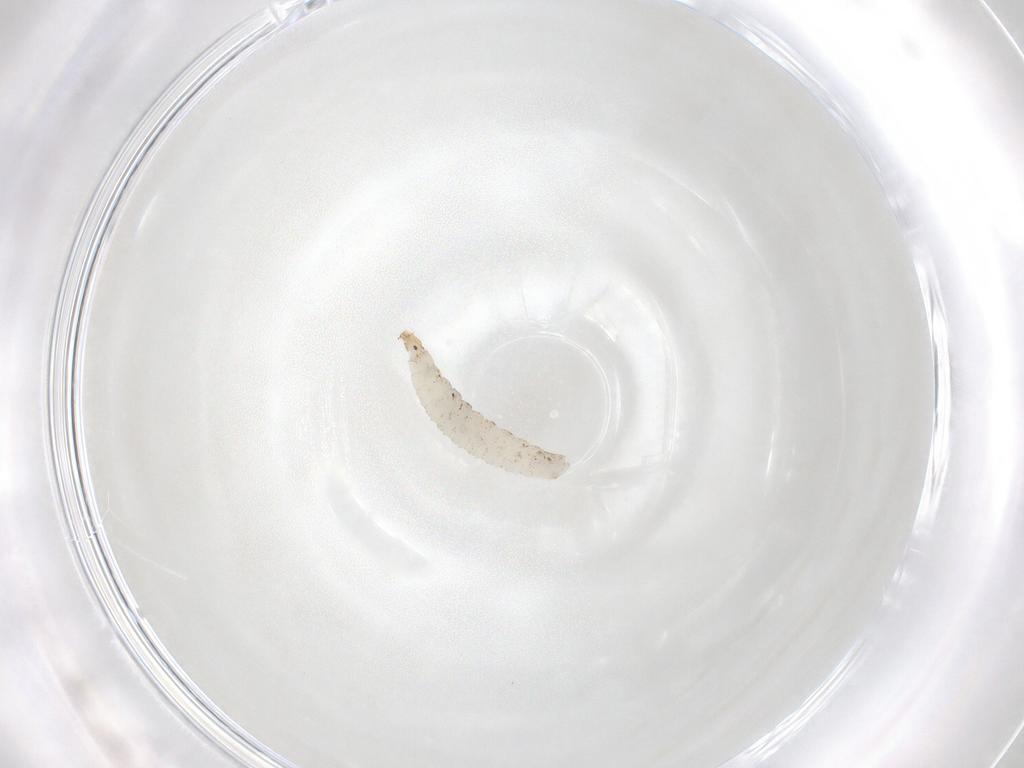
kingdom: Animalia
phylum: Arthropoda
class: Insecta
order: Diptera
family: Stratiomyidae
